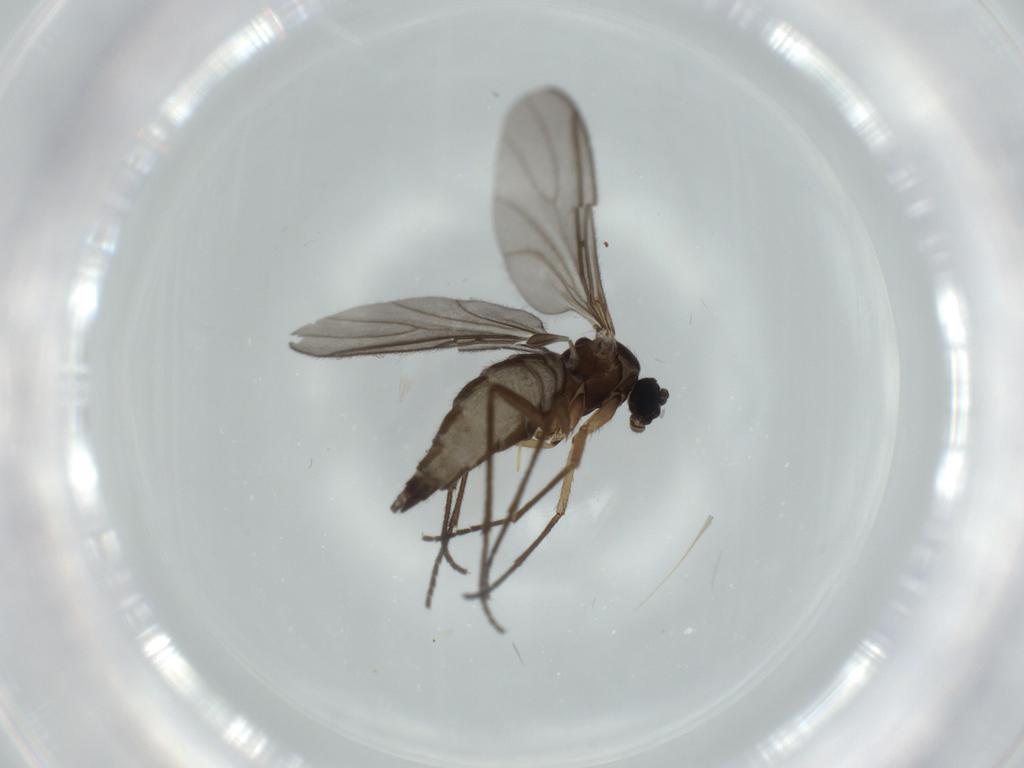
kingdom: Animalia
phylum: Arthropoda
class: Insecta
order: Diptera
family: Sciaridae
